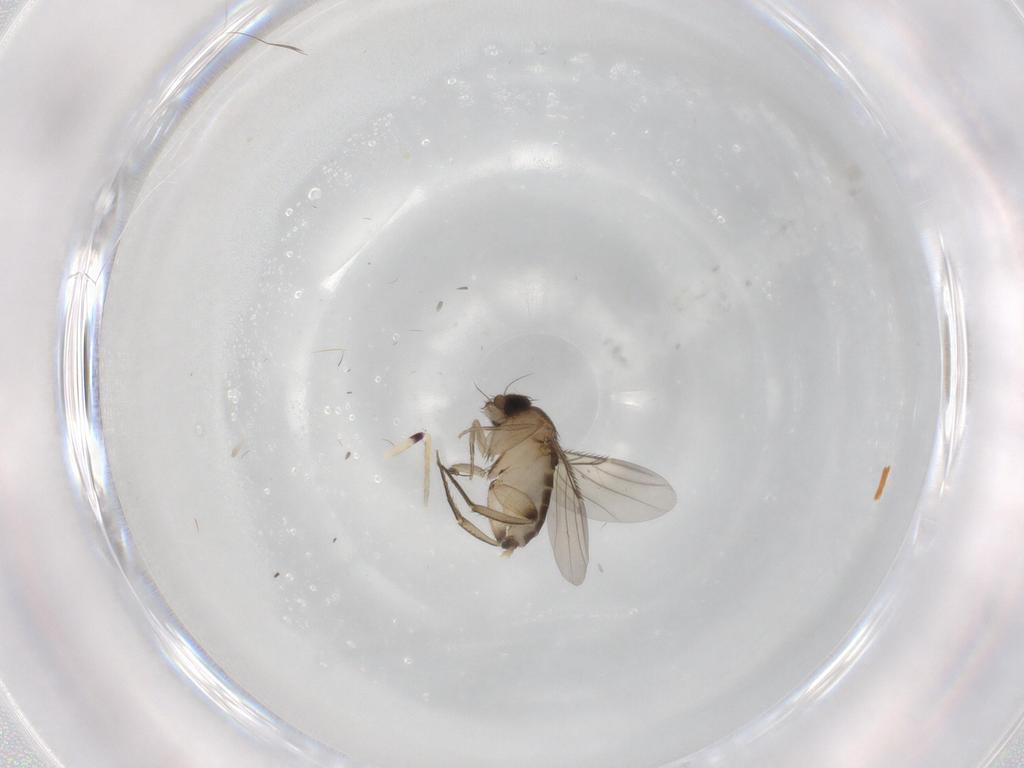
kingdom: Animalia
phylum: Arthropoda
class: Insecta
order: Diptera
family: Phoridae
